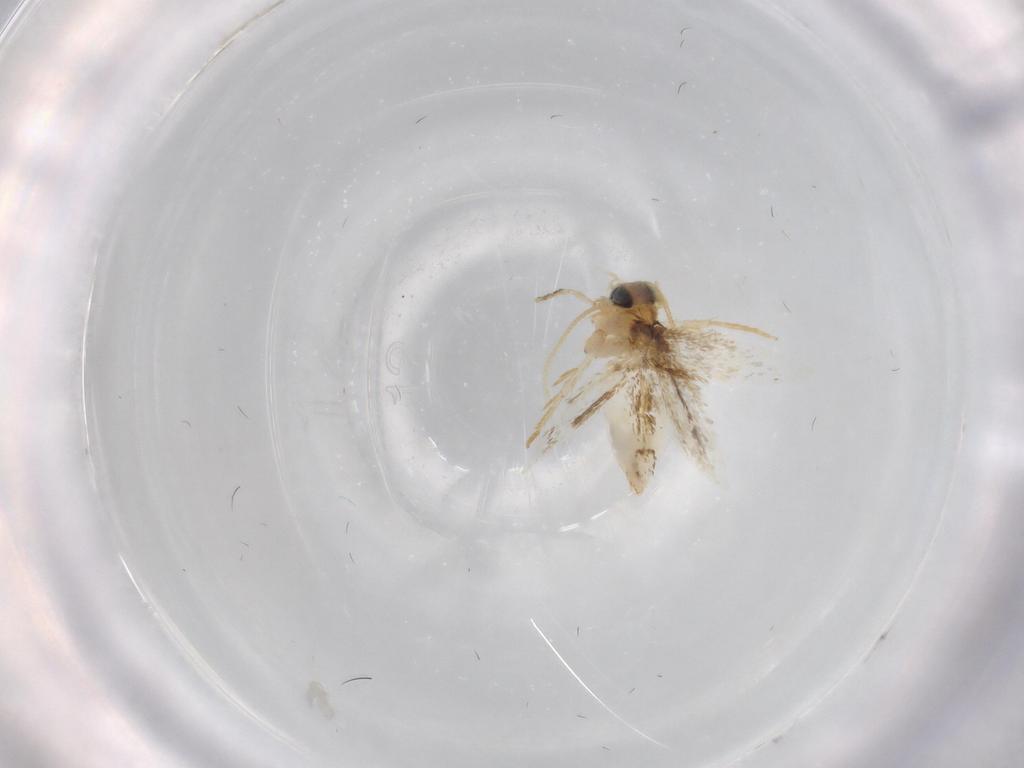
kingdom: Animalia
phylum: Arthropoda
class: Insecta
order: Lepidoptera
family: Nepticulidae
